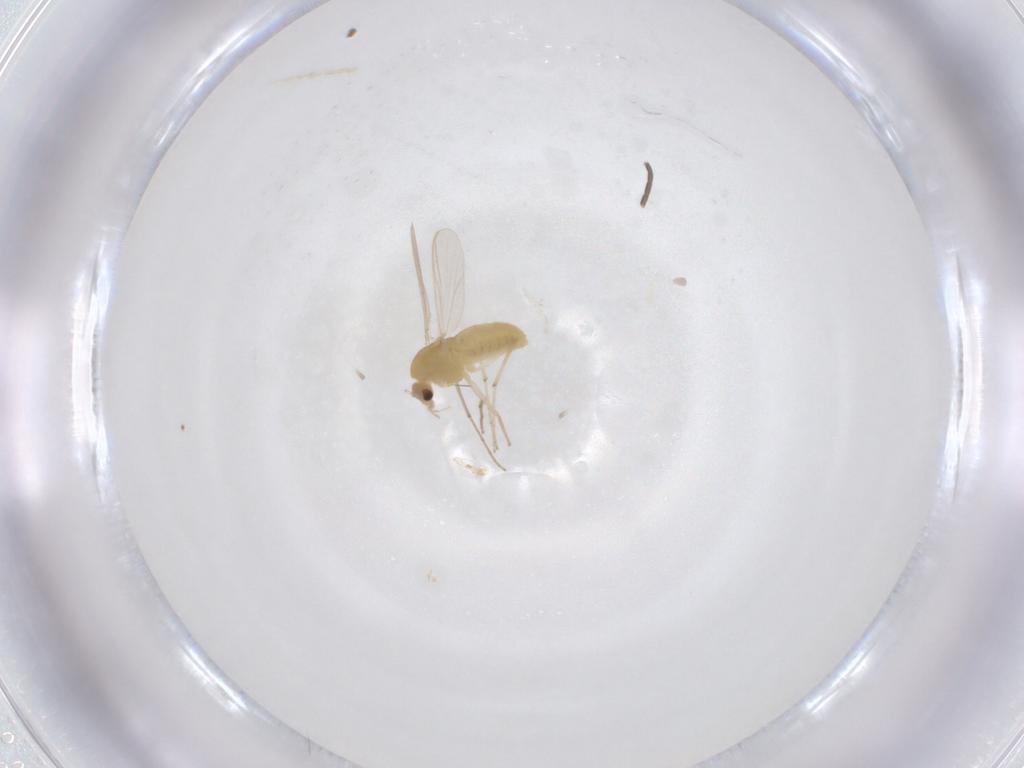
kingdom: Animalia
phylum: Arthropoda
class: Insecta
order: Diptera
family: Chironomidae
